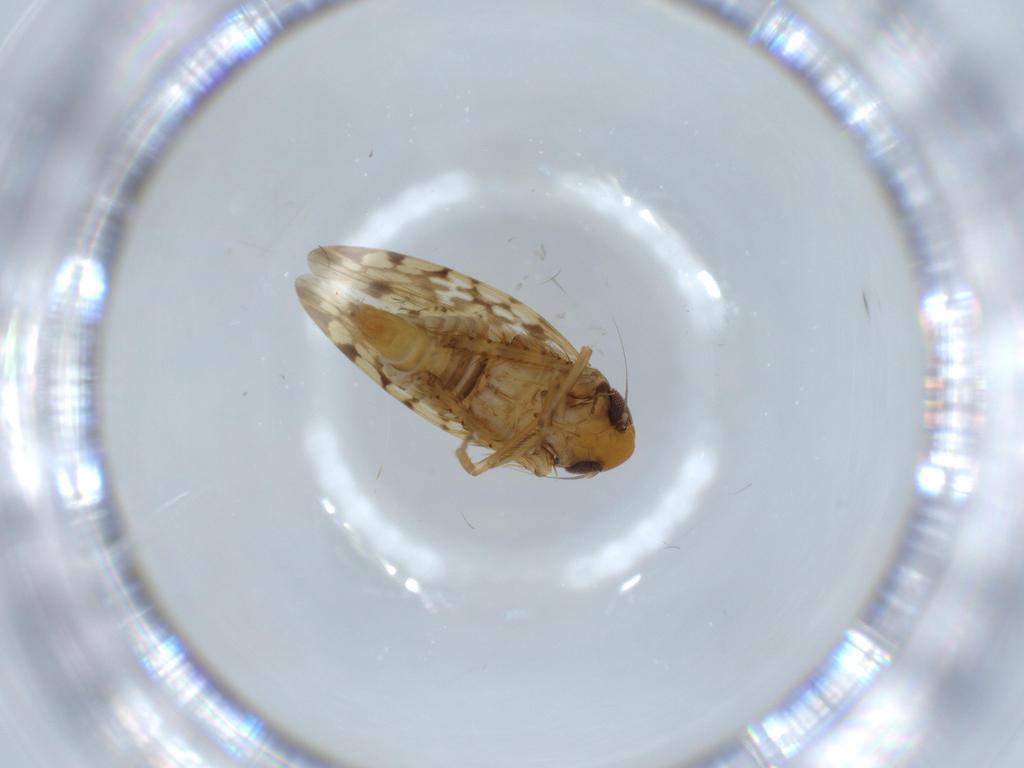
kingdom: Animalia
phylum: Arthropoda
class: Insecta
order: Hemiptera
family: Cicadellidae
